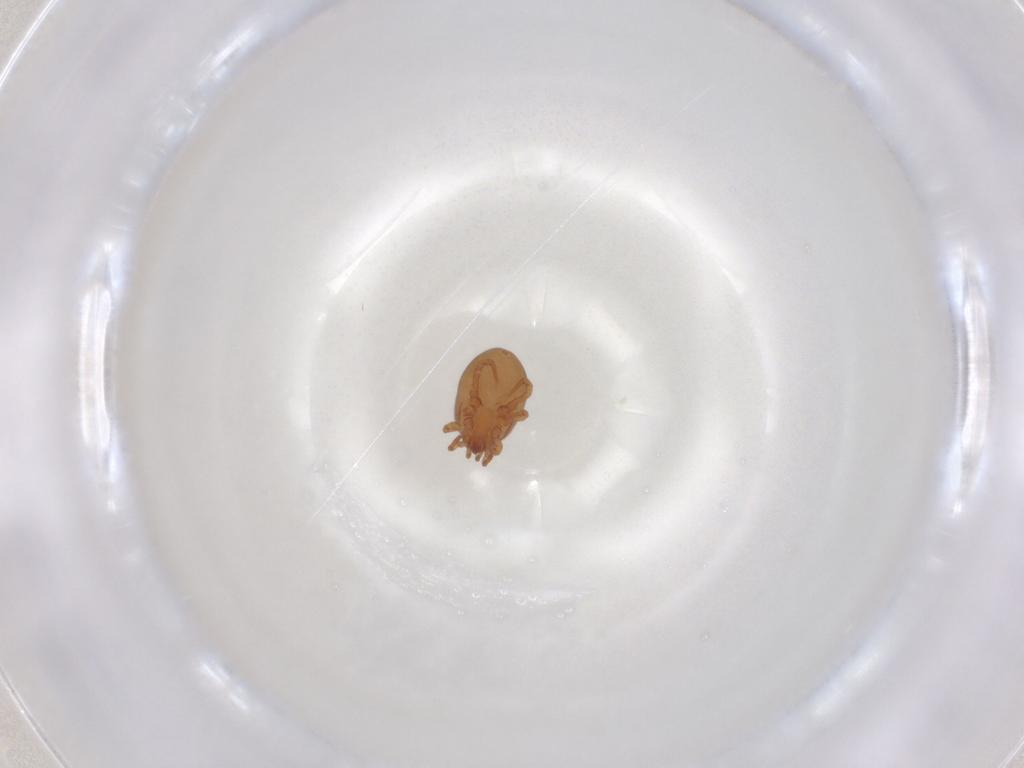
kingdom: Animalia
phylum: Arthropoda
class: Arachnida
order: Mesostigmata
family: Parasitidae
